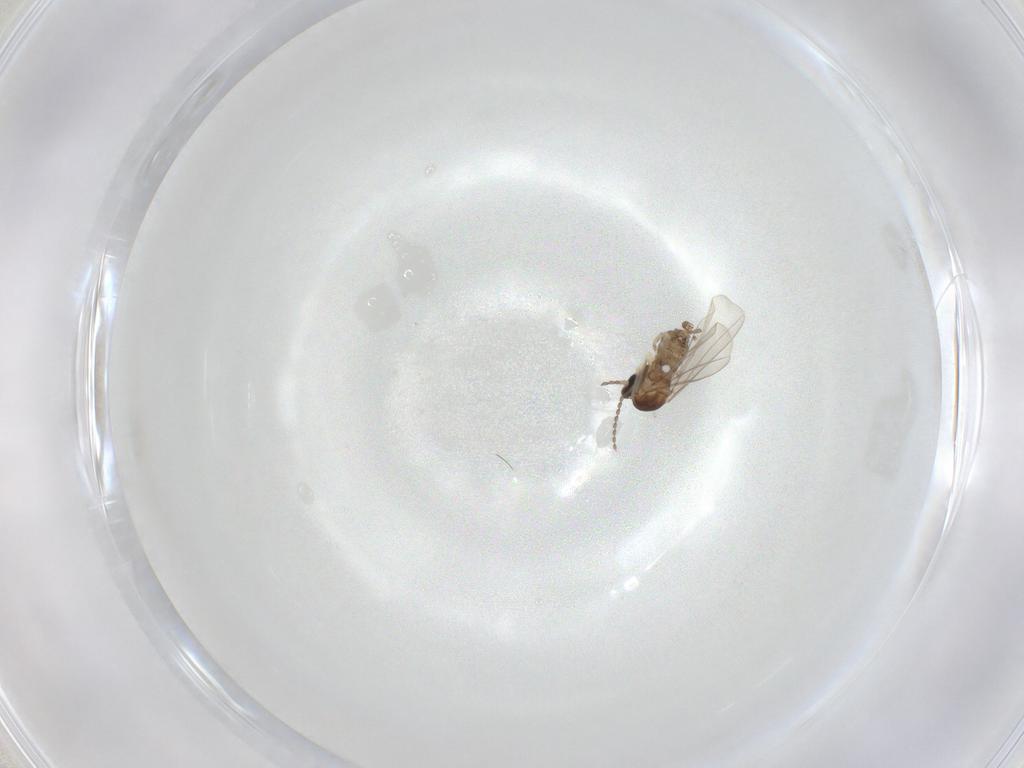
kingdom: Animalia
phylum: Arthropoda
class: Insecta
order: Diptera
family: Cecidomyiidae
